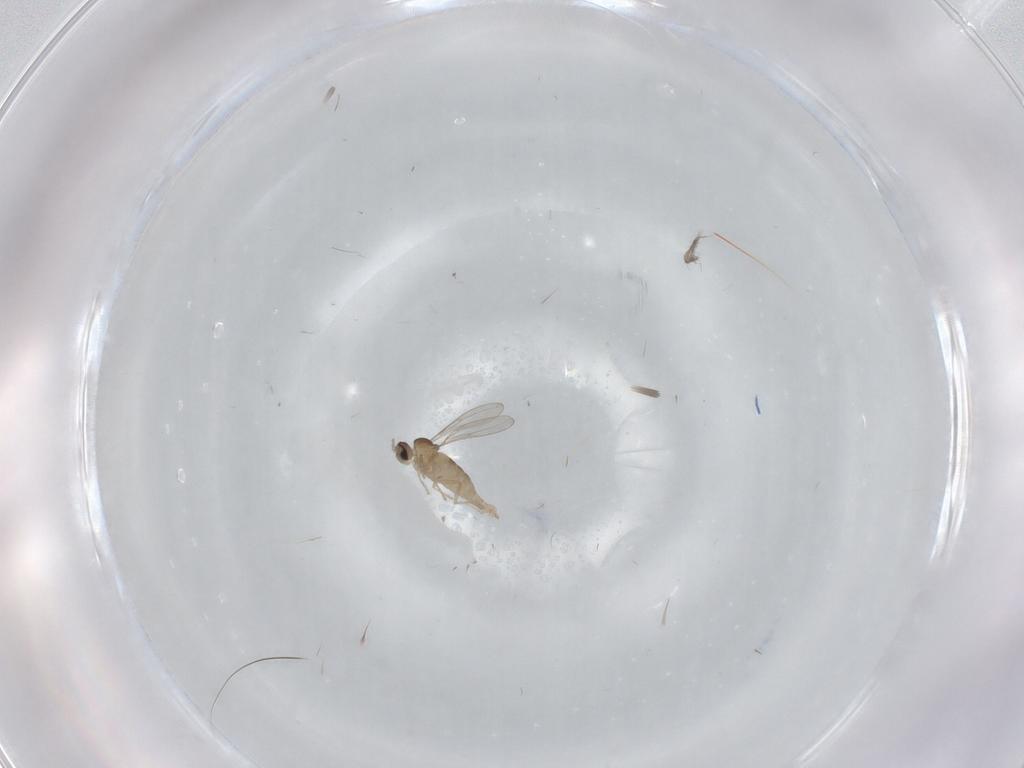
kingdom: Animalia
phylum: Arthropoda
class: Insecta
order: Diptera
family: Cecidomyiidae
